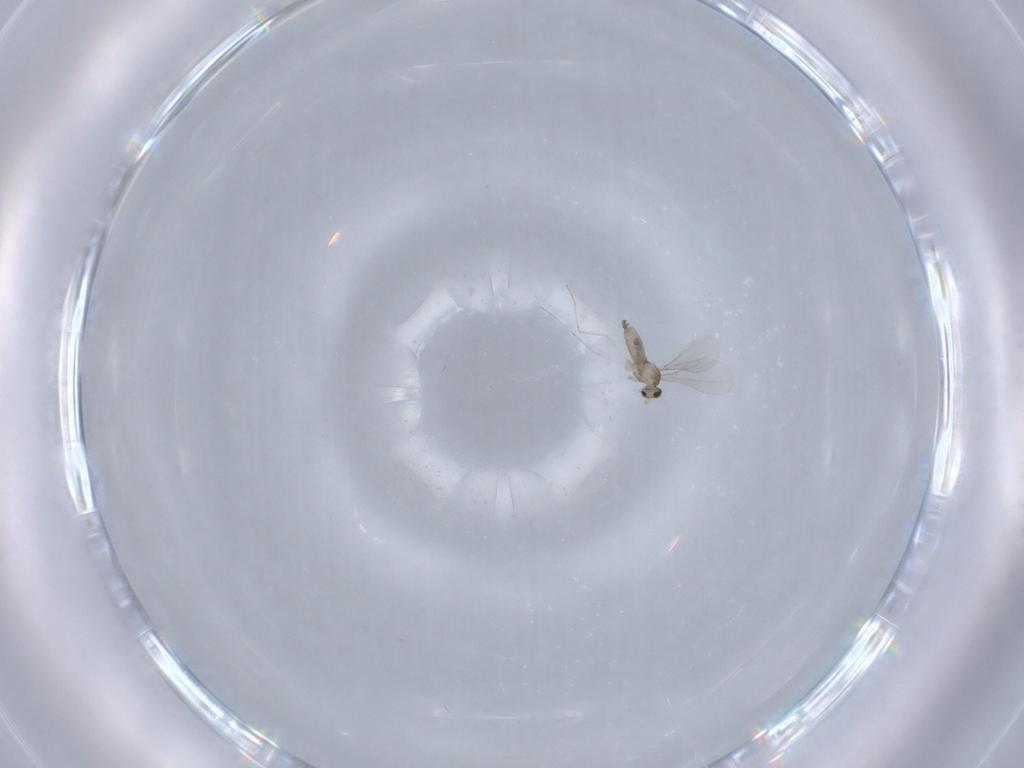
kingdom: Animalia
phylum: Arthropoda
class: Insecta
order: Diptera
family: Cecidomyiidae
